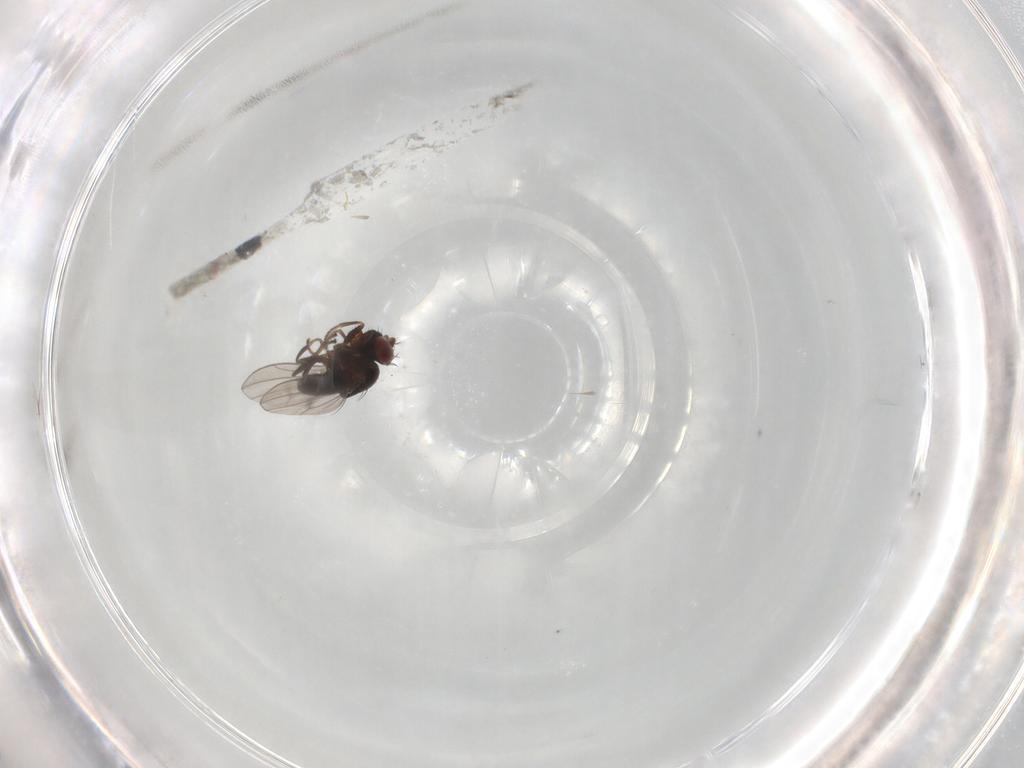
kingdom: Animalia
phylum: Arthropoda
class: Insecta
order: Diptera
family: Ephydridae
